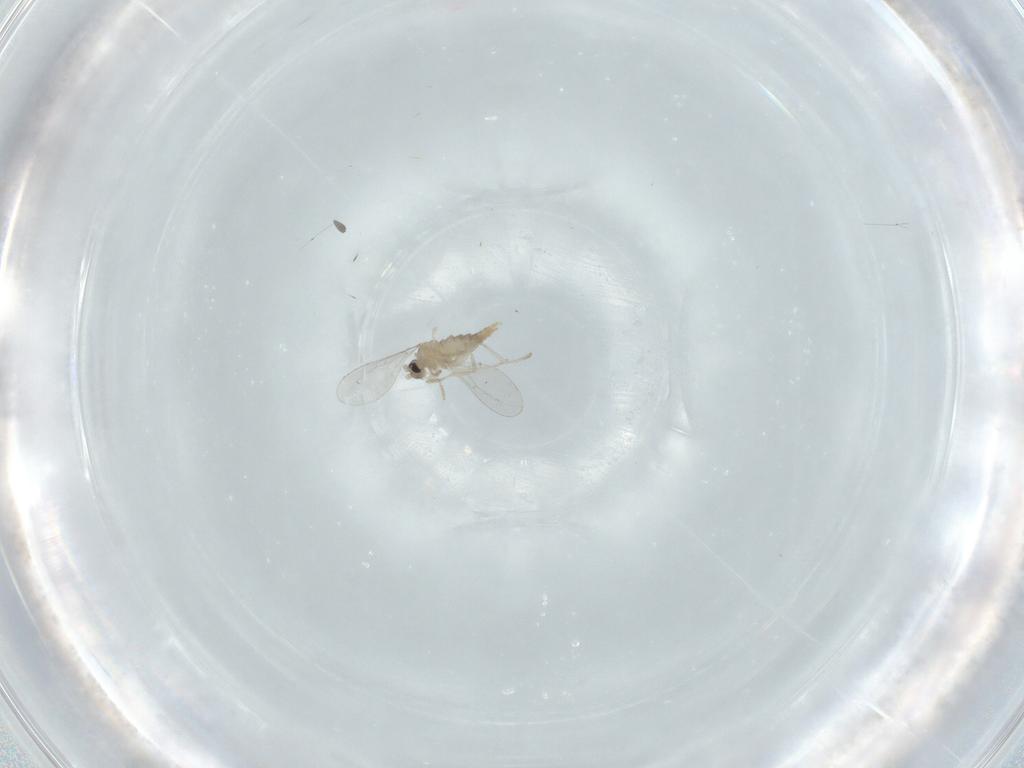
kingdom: Animalia
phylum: Arthropoda
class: Insecta
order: Diptera
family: Cecidomyiidae
